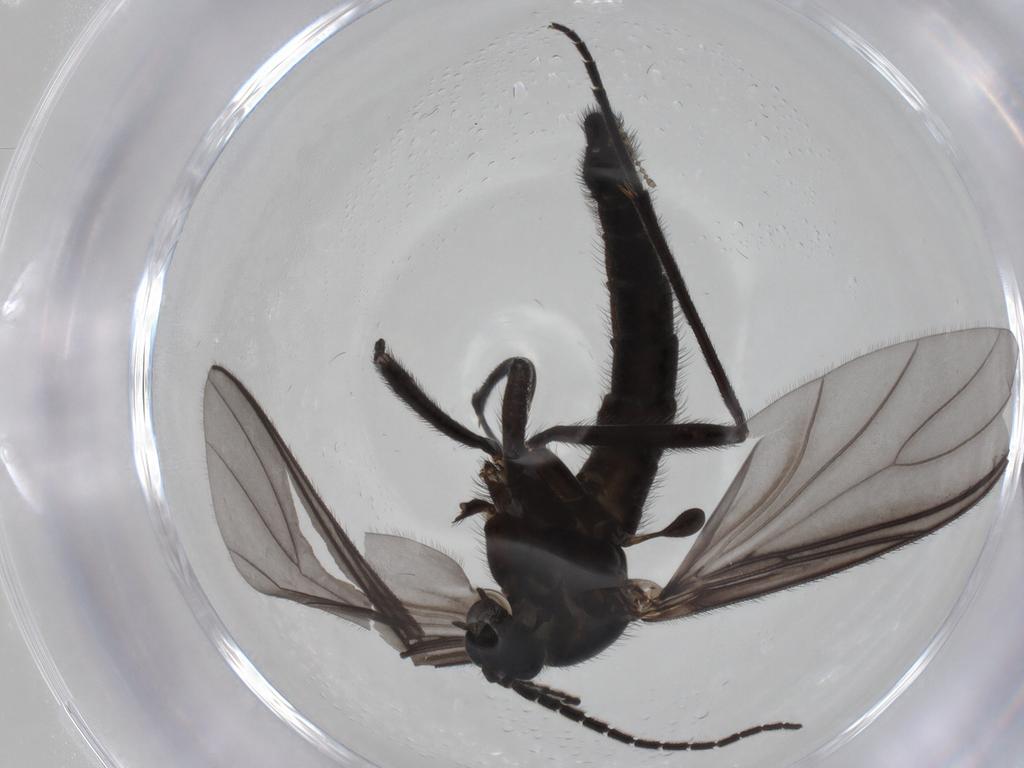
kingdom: Animalia
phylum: Arthropoda
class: Insecta
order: Diptera
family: Cecidomyiidae
